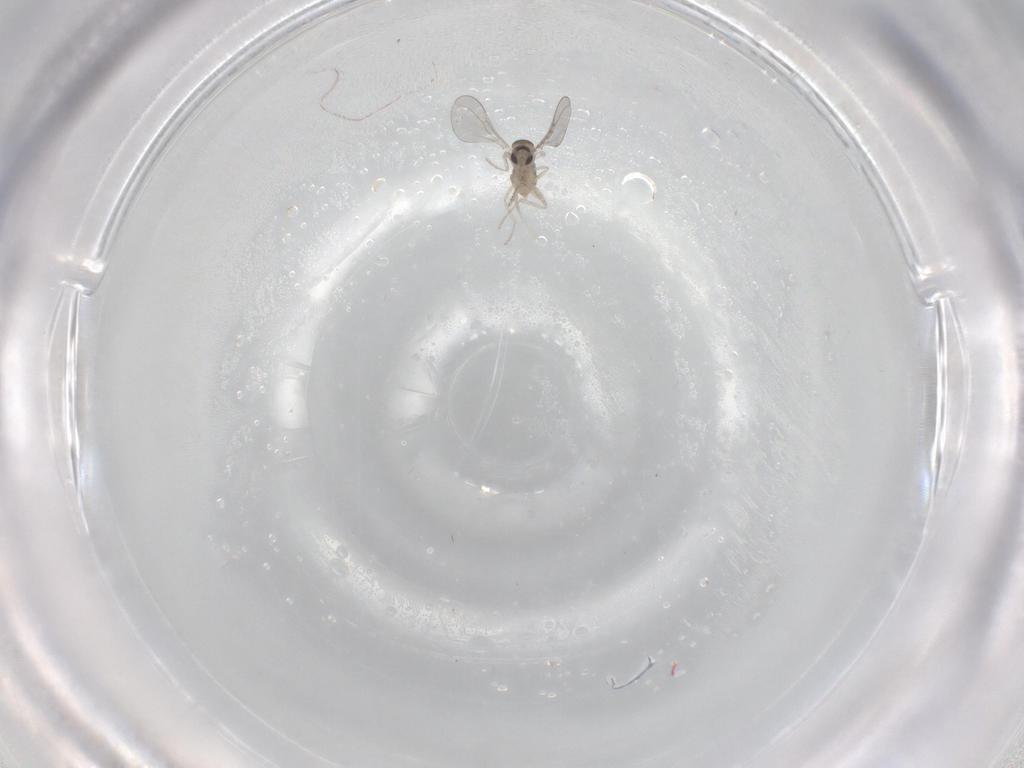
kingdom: Animalia
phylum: Arthropoda
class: Insecta
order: Diptera
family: Cecidomyiidae
